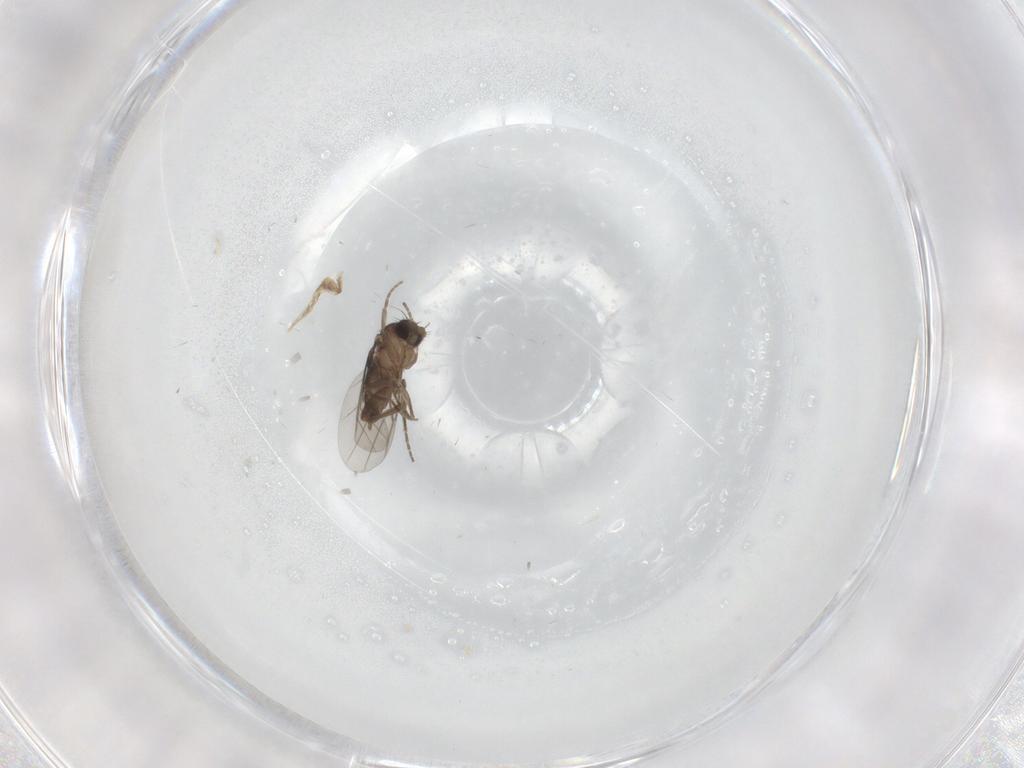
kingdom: Animalia
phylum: Arthropoda
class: Insecta
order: Diptera
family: Phoridae
